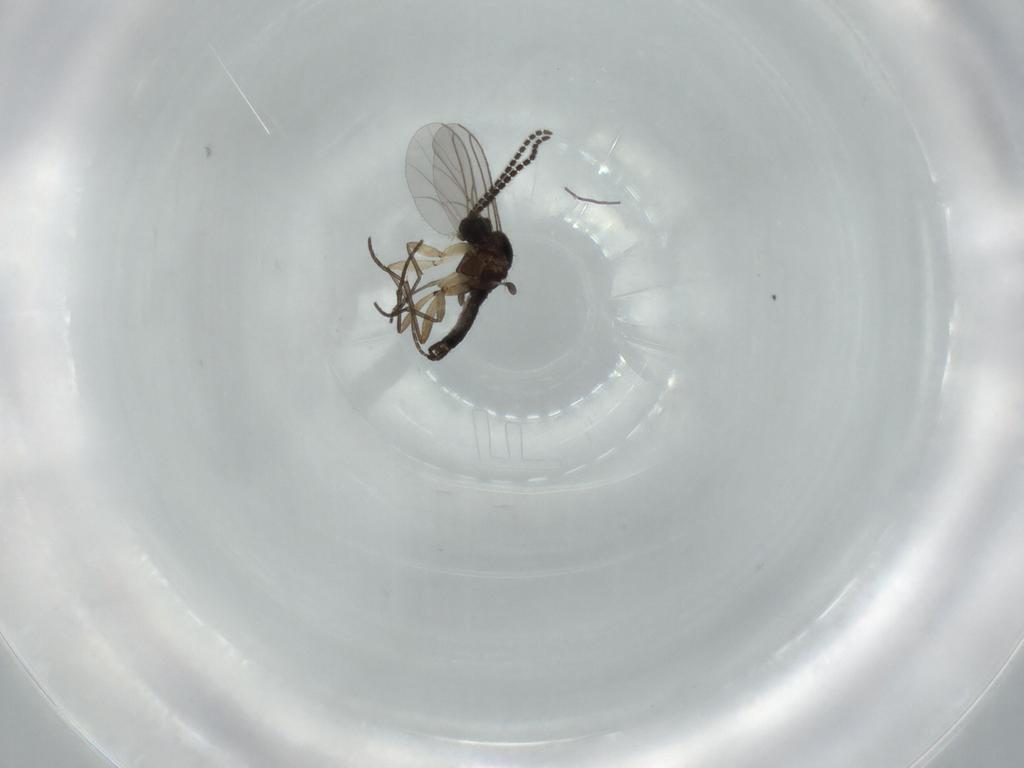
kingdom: Animalia
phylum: Arthropoda
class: Insecta
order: Diptera
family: Sciaridae
